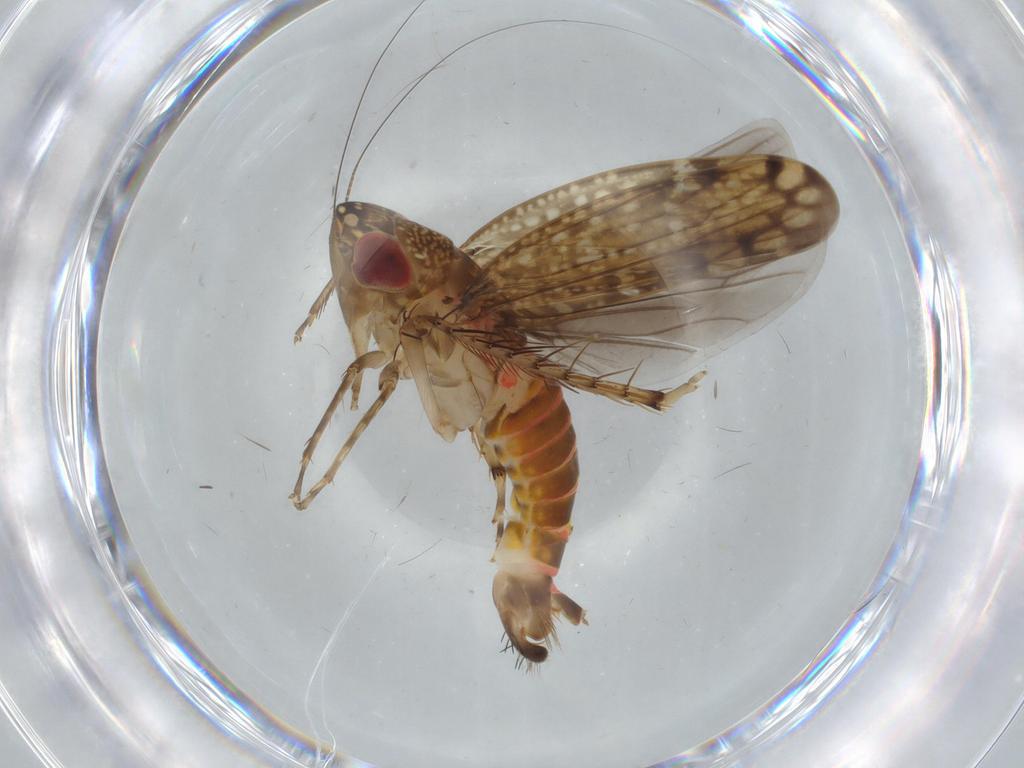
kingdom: Animalia
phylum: Arthropoda
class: Insecta
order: Hemiptera
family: Cicadellidae
